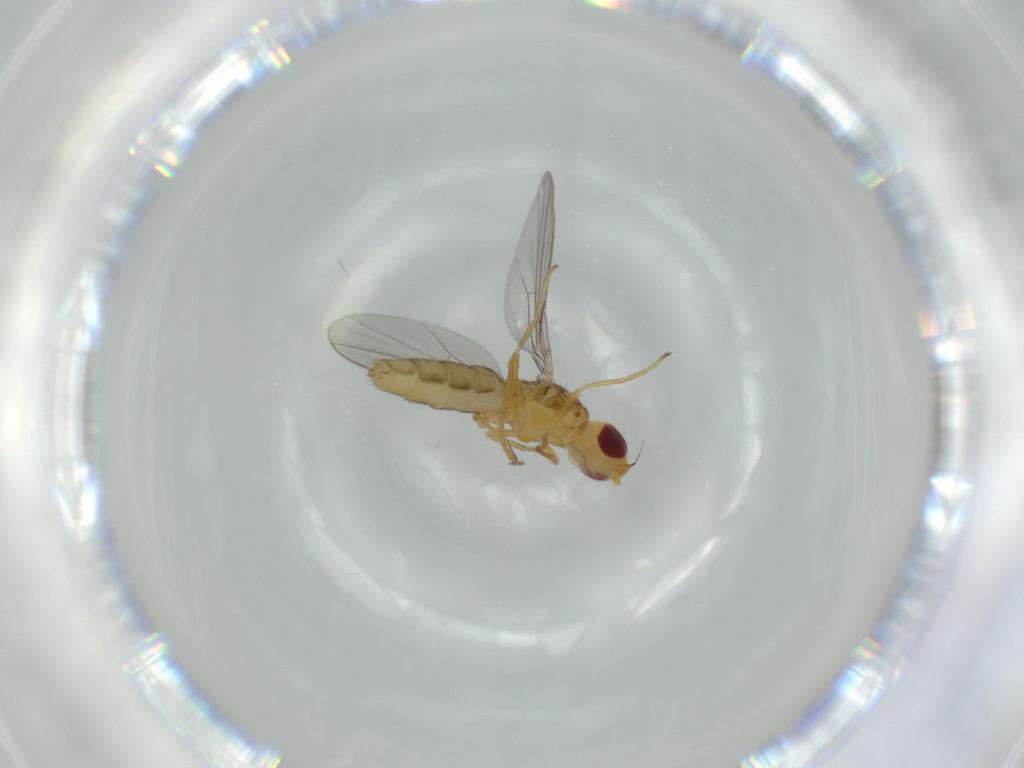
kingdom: Animalia
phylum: Arthropoda
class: Insecta
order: Diptera
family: Chloropidae
